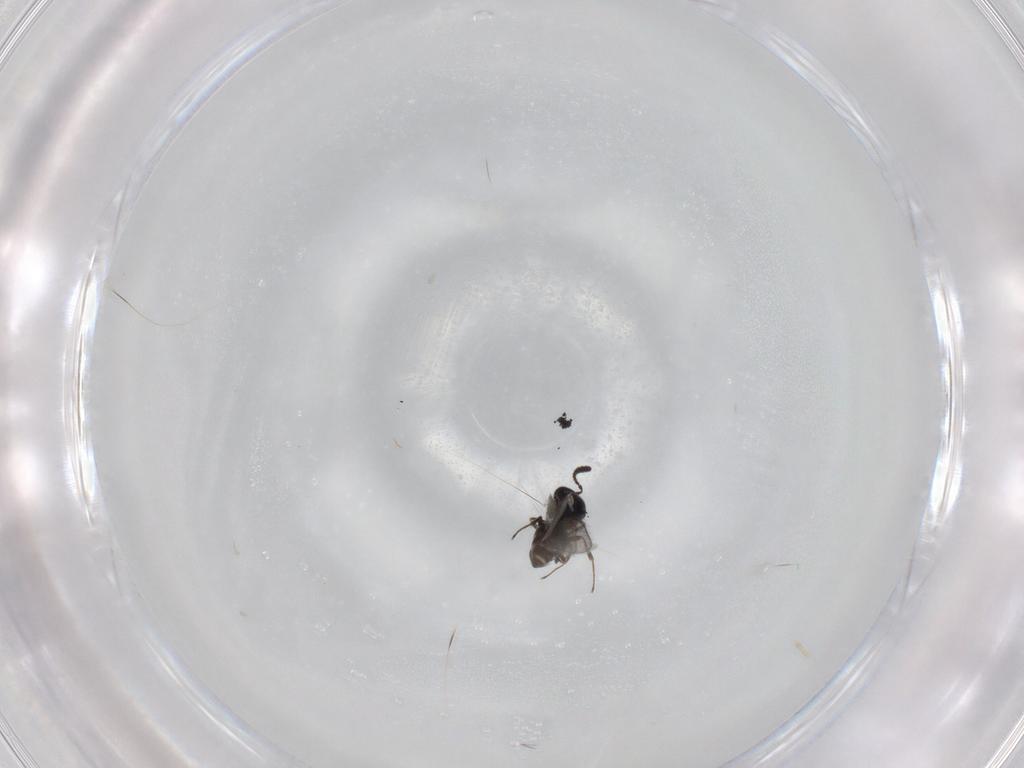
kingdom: Animalia
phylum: Arthropoda
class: Insecta
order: Hymenoptera
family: Scelionidae
